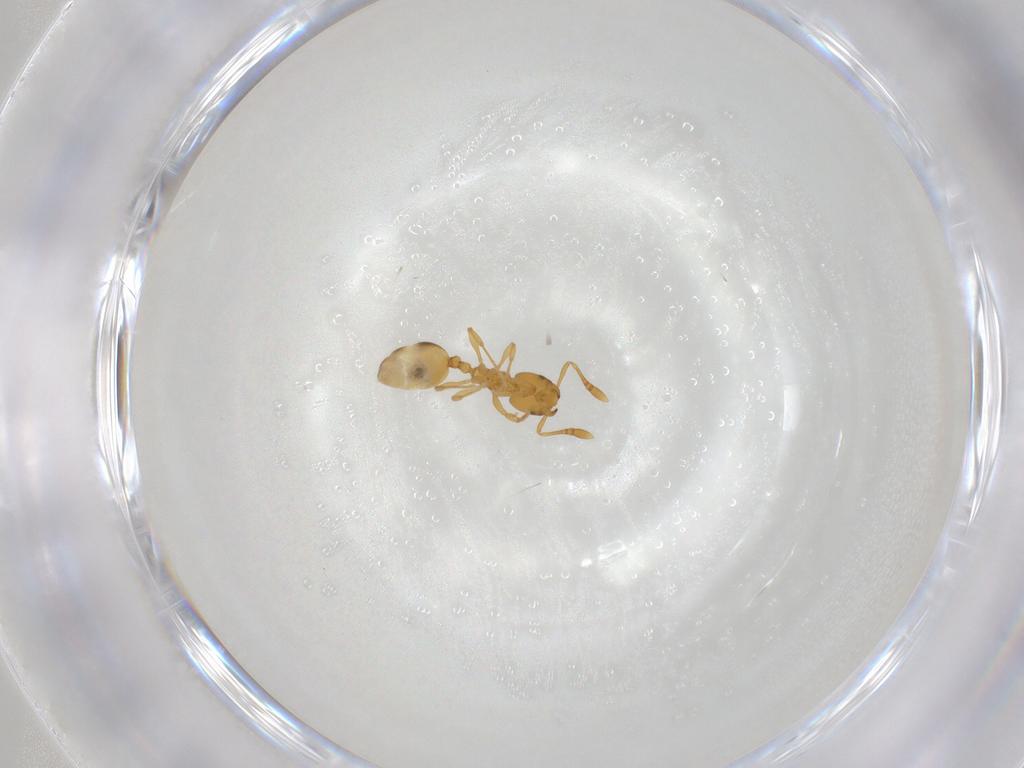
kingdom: Animalia
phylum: Arthropoda
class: Insecta
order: Hymenoptera
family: Formicidae
